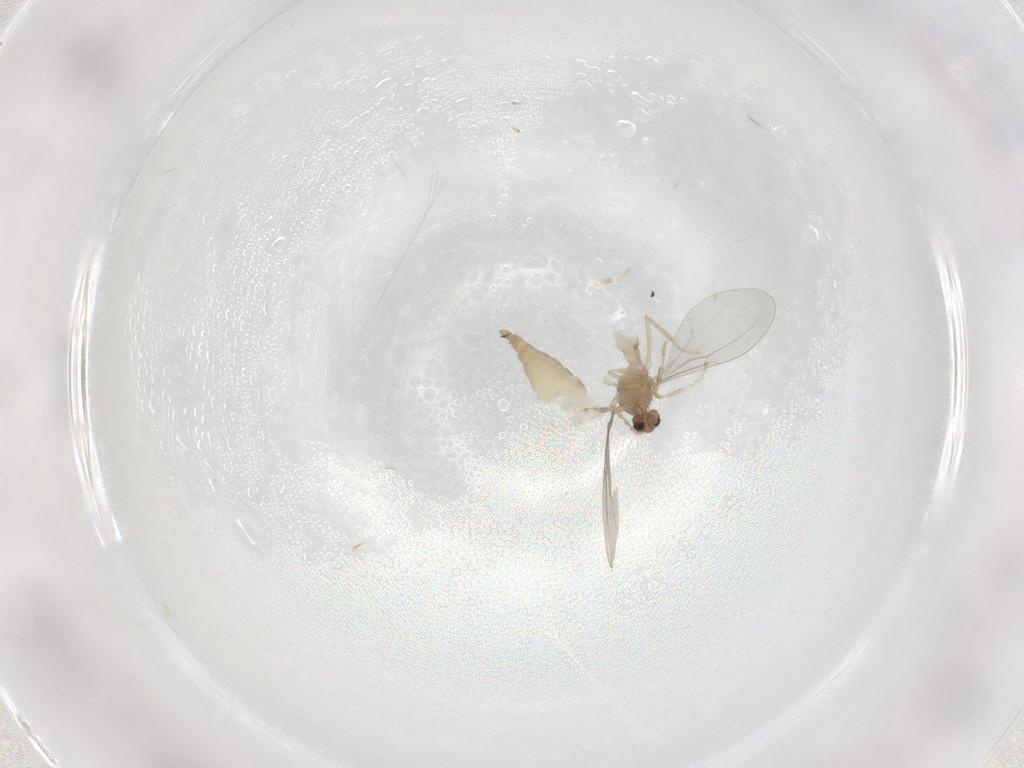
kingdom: Animalia
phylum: Arthropoda
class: Insecta
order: Diptera
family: Cecidomyiidae
